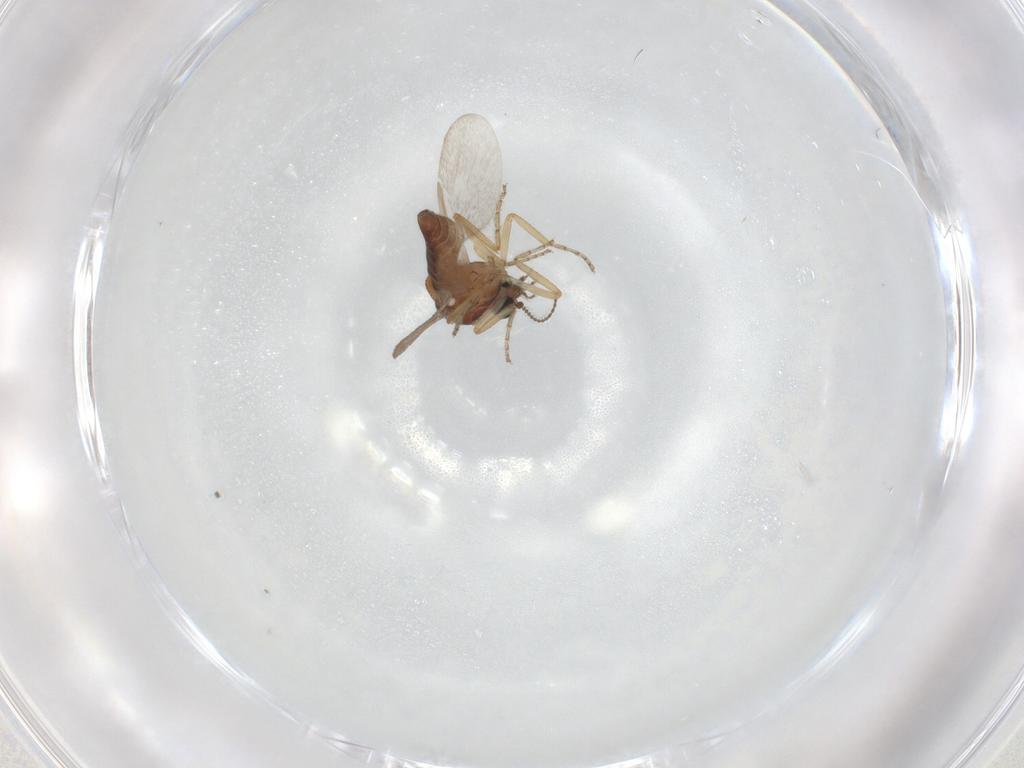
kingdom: Animalia
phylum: Arthropoda
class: Insecta
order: Diptera
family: Ceratopogonidae
